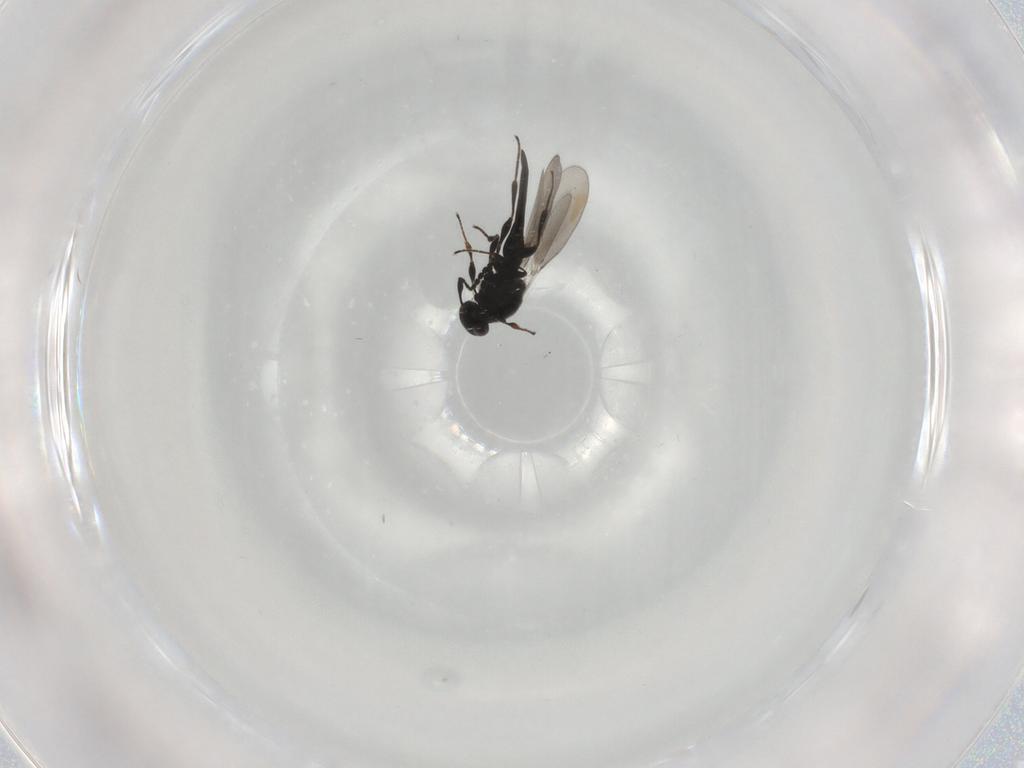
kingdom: Animalia
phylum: Arthropoda
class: Insecta
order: Hymenoptera
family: Platygastridae
